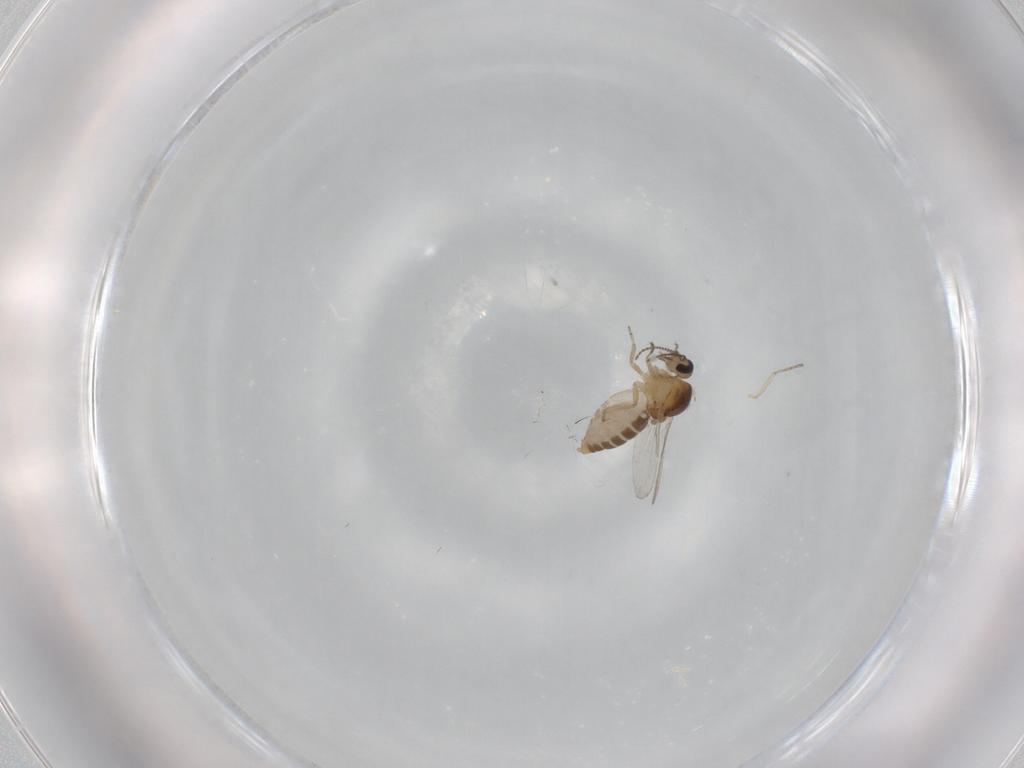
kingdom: Animalia
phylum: Arthropoda
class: Insecta
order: Diptera
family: Ceratopogonidae
